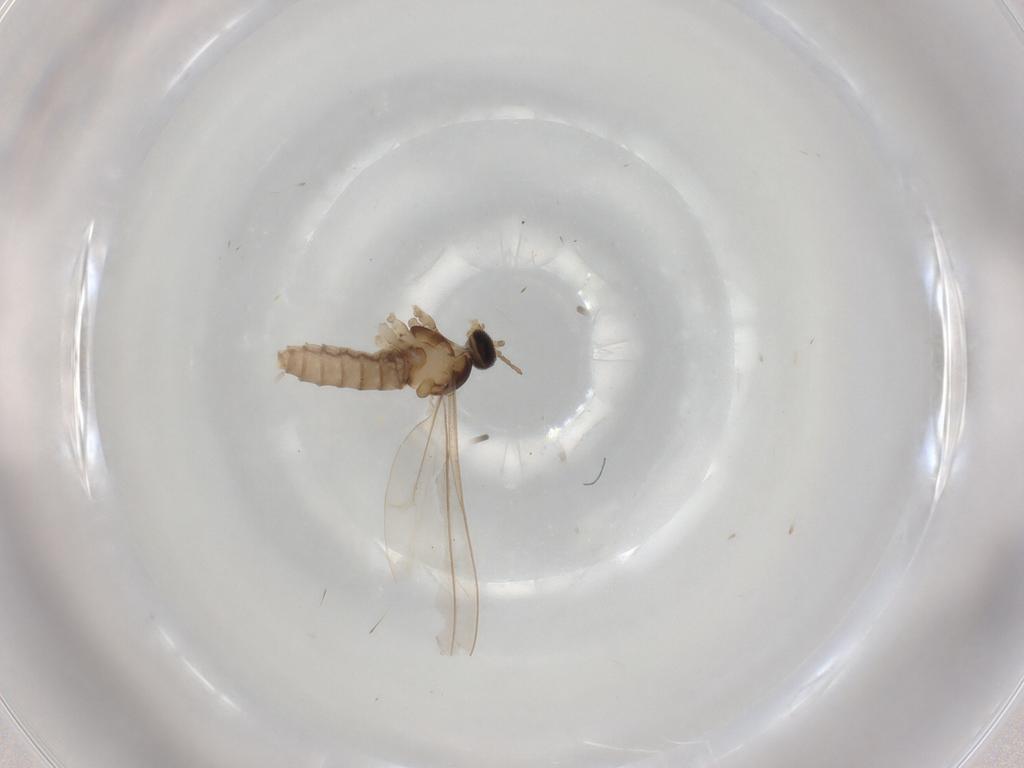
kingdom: Animalia
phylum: Arthropoda
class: Insecta
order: Diptera
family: Cecidomyiidae
